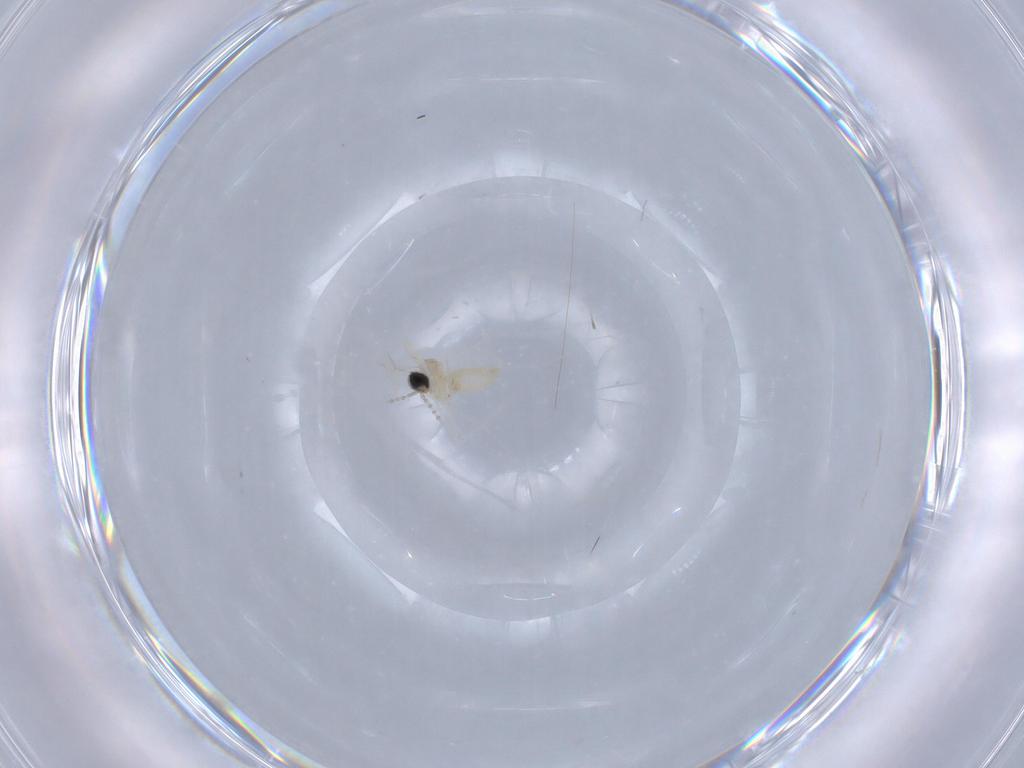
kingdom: Animalia
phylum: Arthropoda
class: Insecta
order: Diptera
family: Cecidomyiidae
